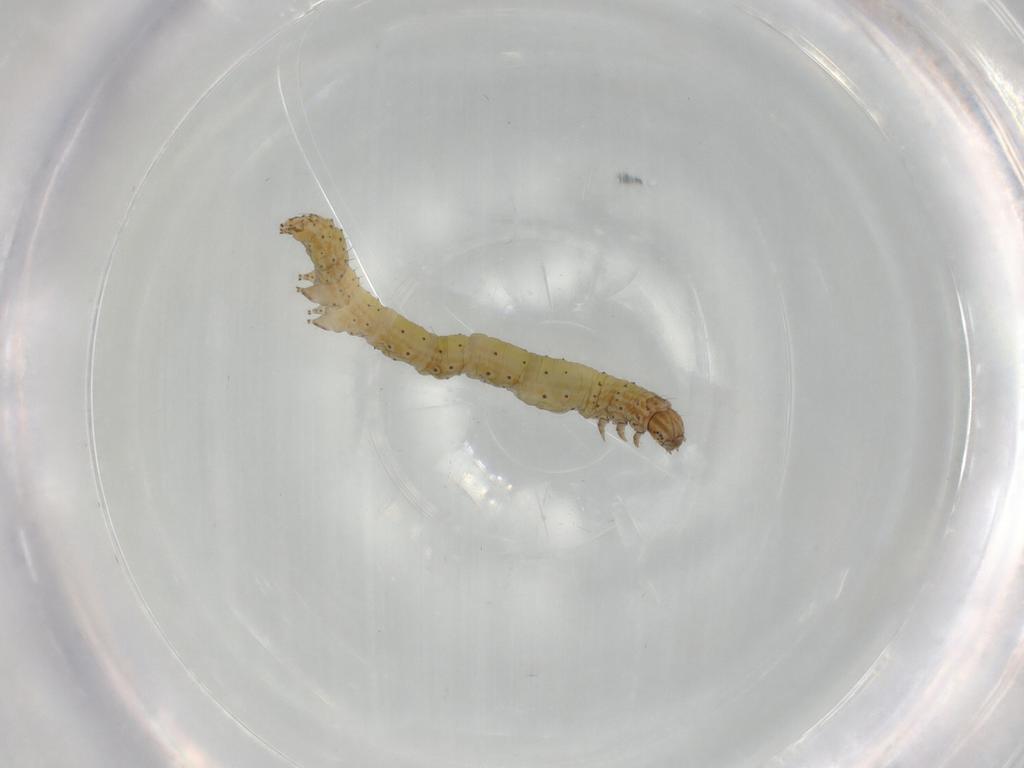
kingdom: Animalia
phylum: Arthropoda
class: Insecta
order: Lepidoptera
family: Erebidae
